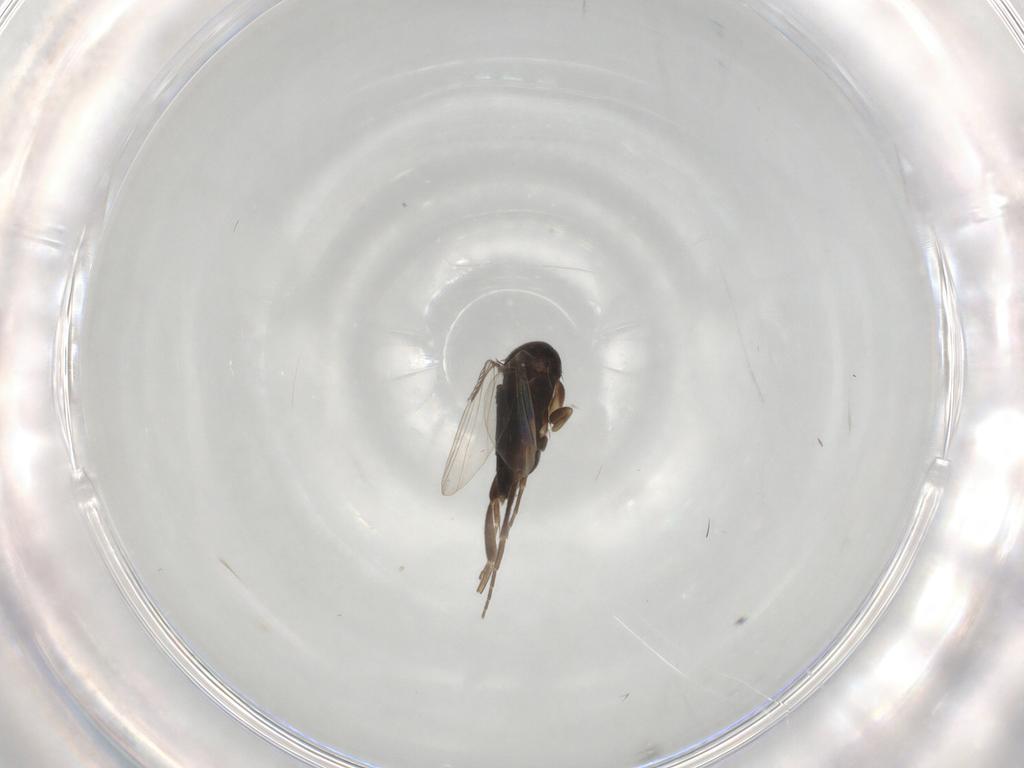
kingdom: Animalia
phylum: Arthropoda
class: Insecta
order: Diptera
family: Phoridae
